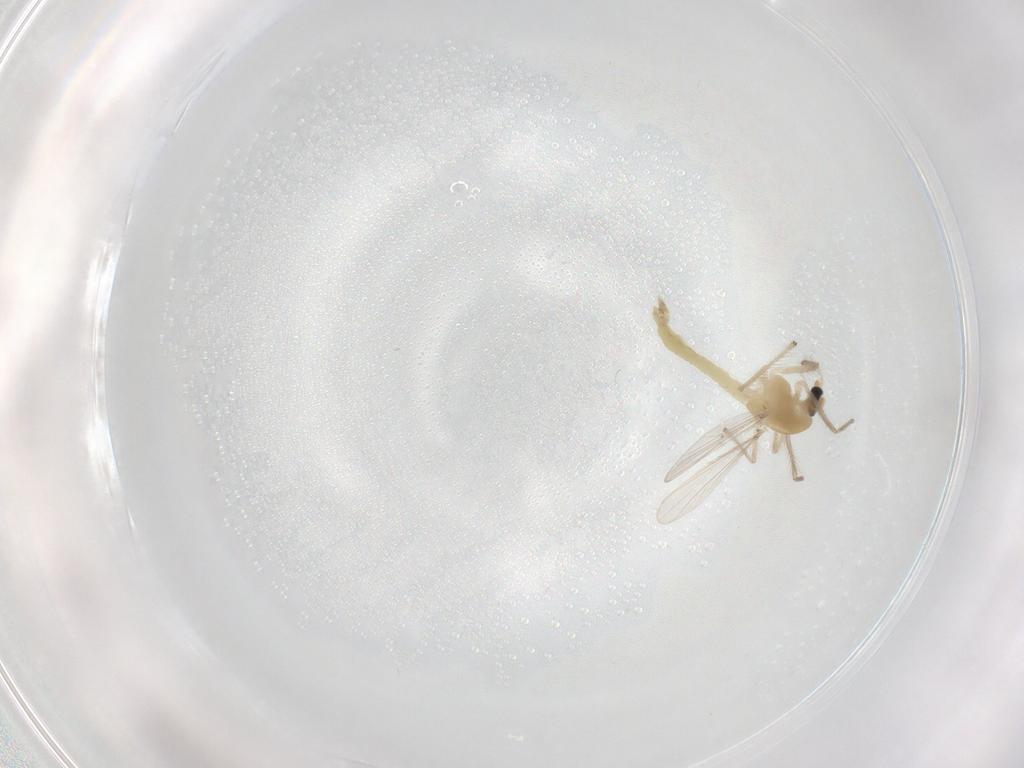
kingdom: Animalia
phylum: Arthropoda
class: Insecta
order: Diptera
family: Chironomidae
